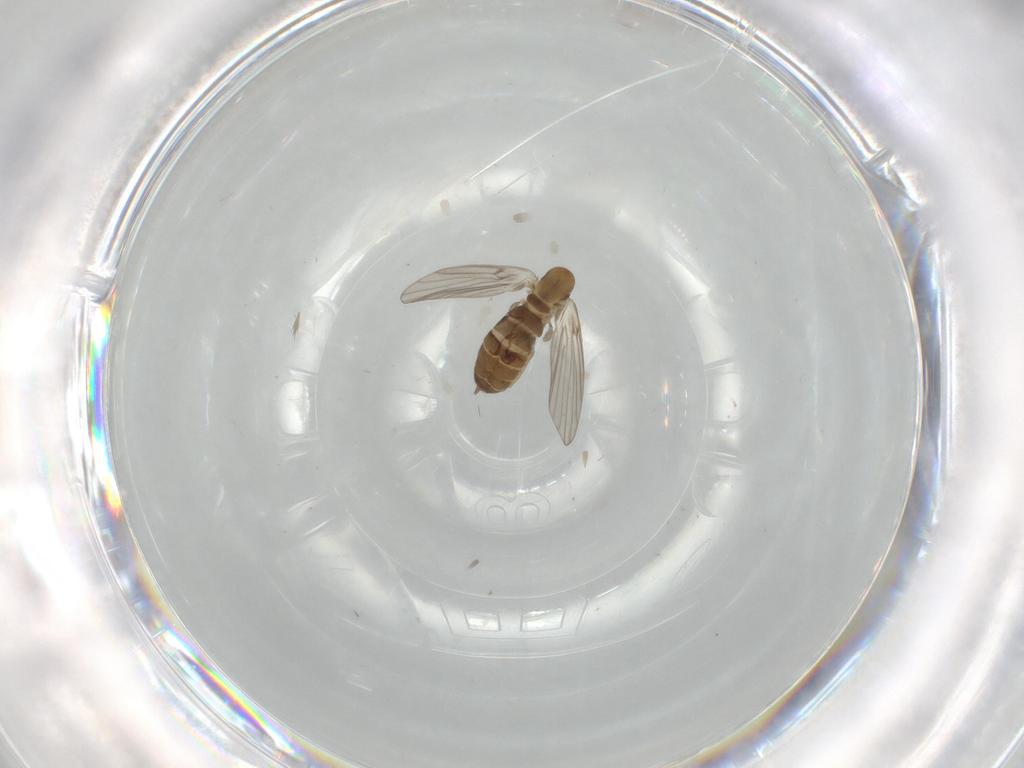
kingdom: Animalia
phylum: Arthropoda
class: Insecta
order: Diptera
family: Psychodidae
